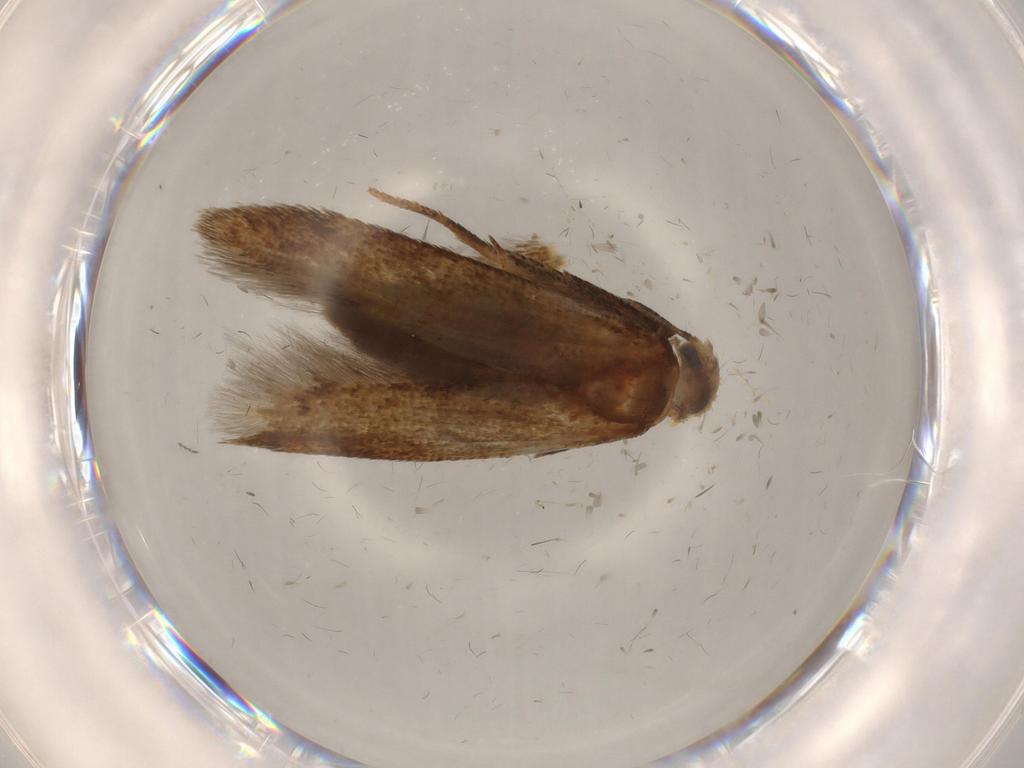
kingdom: Animalia
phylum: Arthropoda
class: Insecta
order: Lepidoptera
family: Blastobasidae
